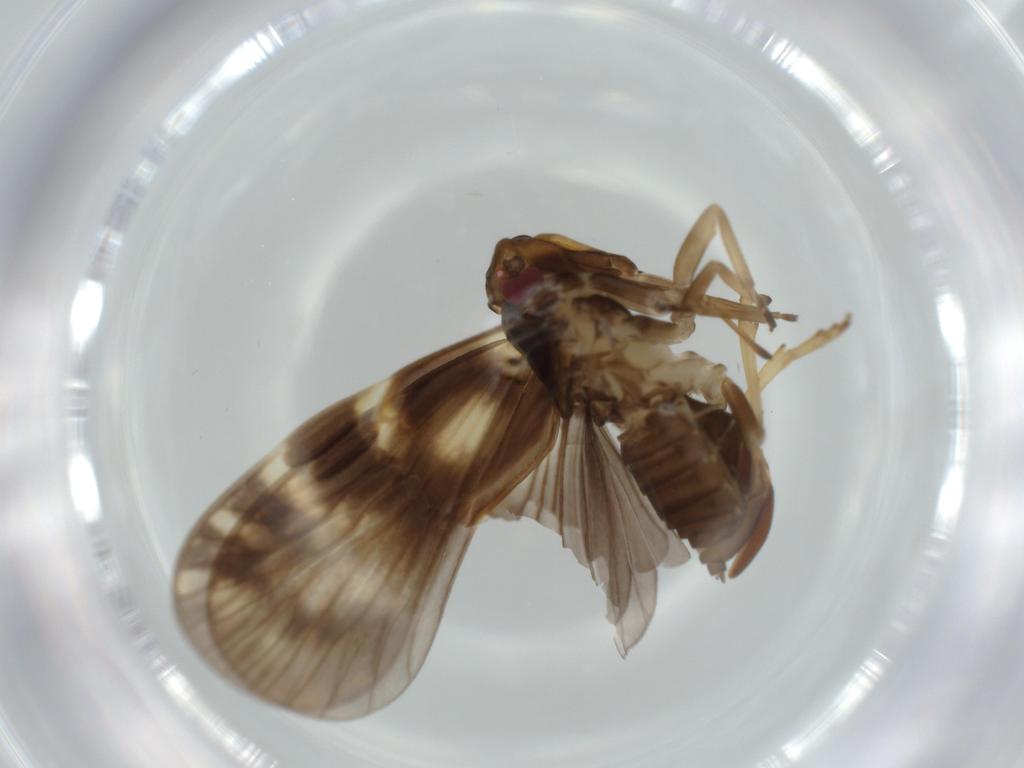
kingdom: Animalia
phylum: Arthropoda
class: Insecta
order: Hemiptera
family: Cixiidae
